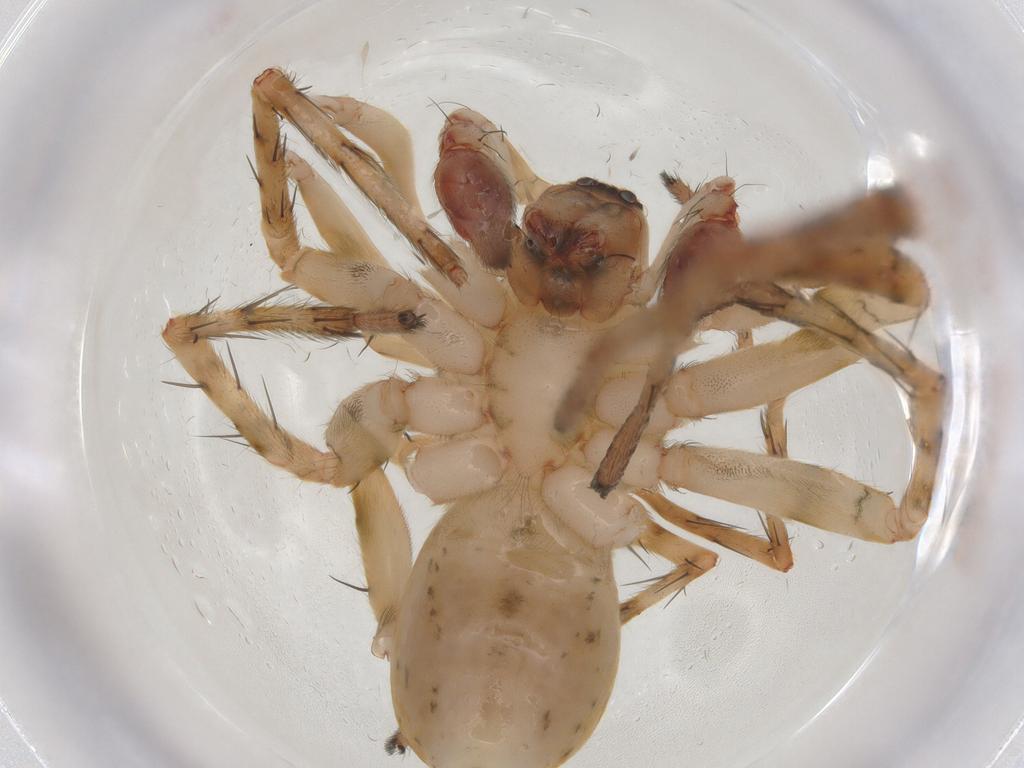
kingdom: Animalia
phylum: Arthropoda
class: Arachnida
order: Araneae
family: Anyphaenidae
